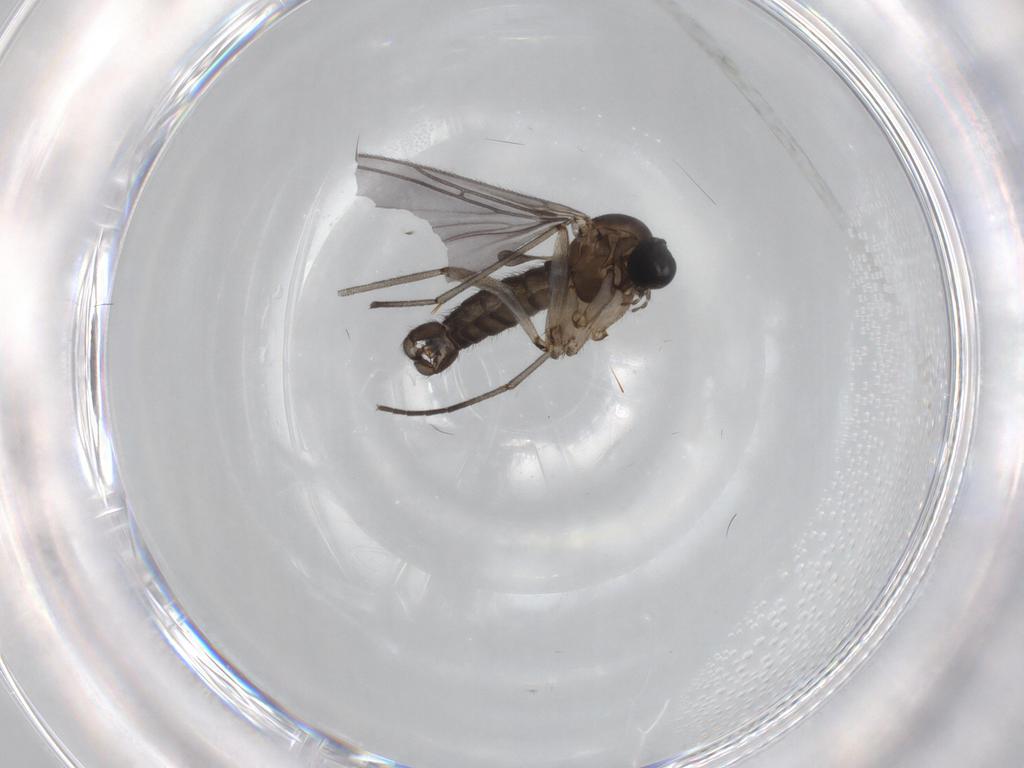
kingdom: Animalia
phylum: Arthropoda
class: Insecta
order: Diptera
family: Sciaridae
